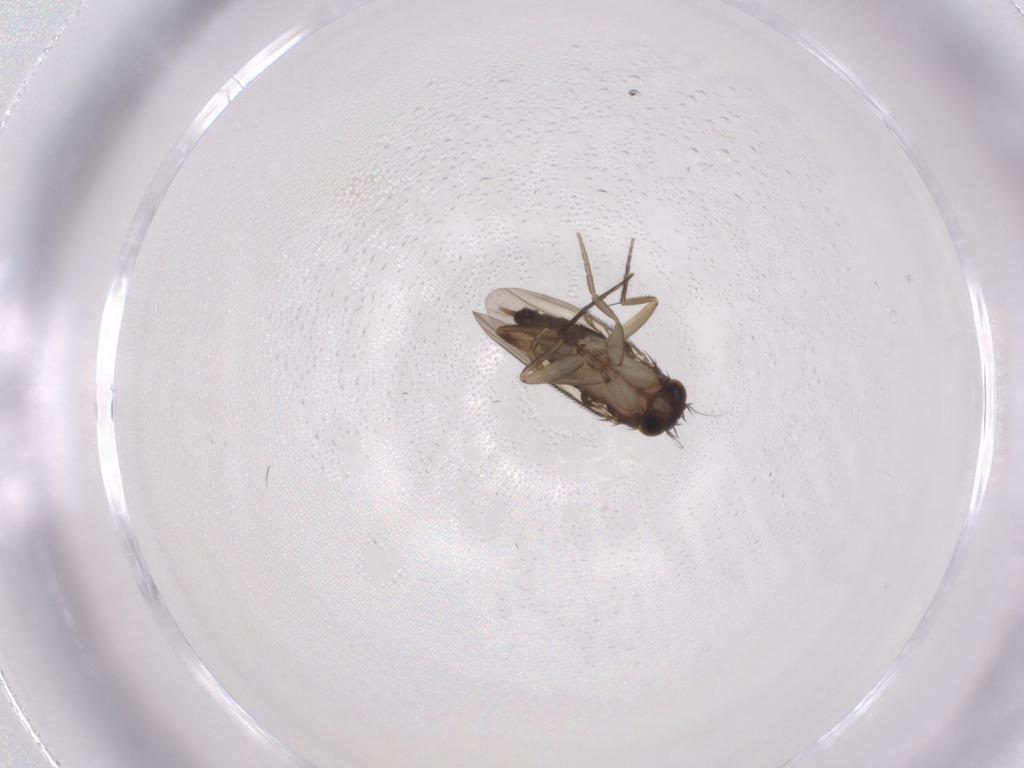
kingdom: Animalia
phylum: Arthropoda
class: Insecta
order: Diptera
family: Phoridae
